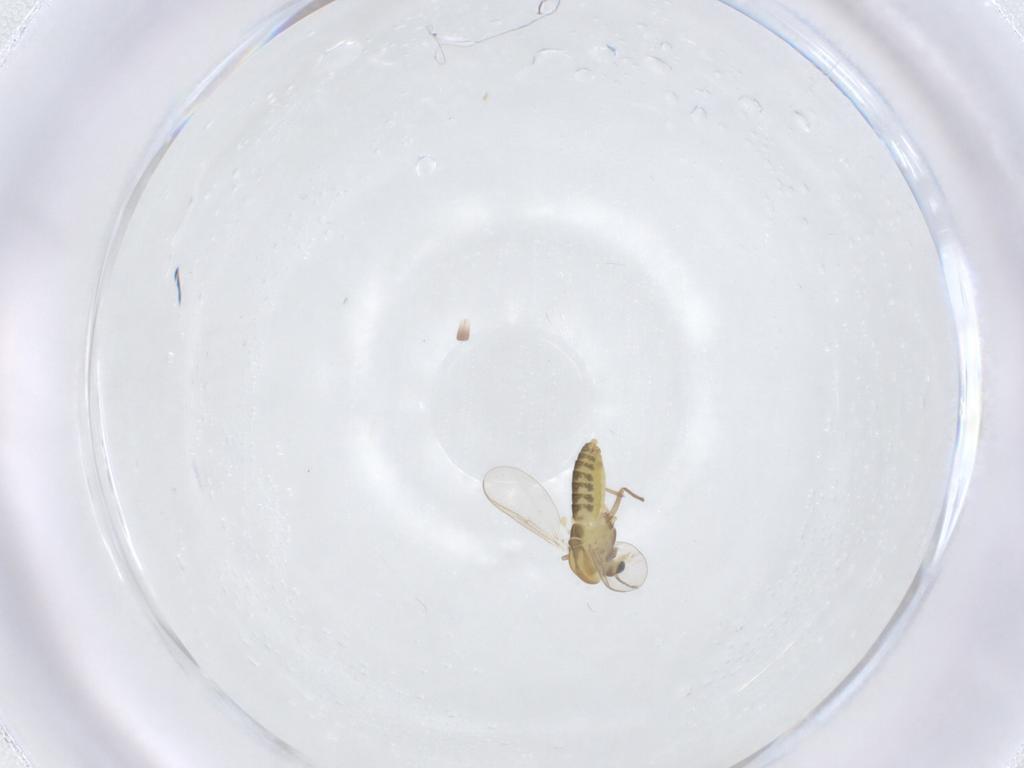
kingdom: Animalia
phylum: Arthropoda
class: Insecta
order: Diptera
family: Chironomidae
